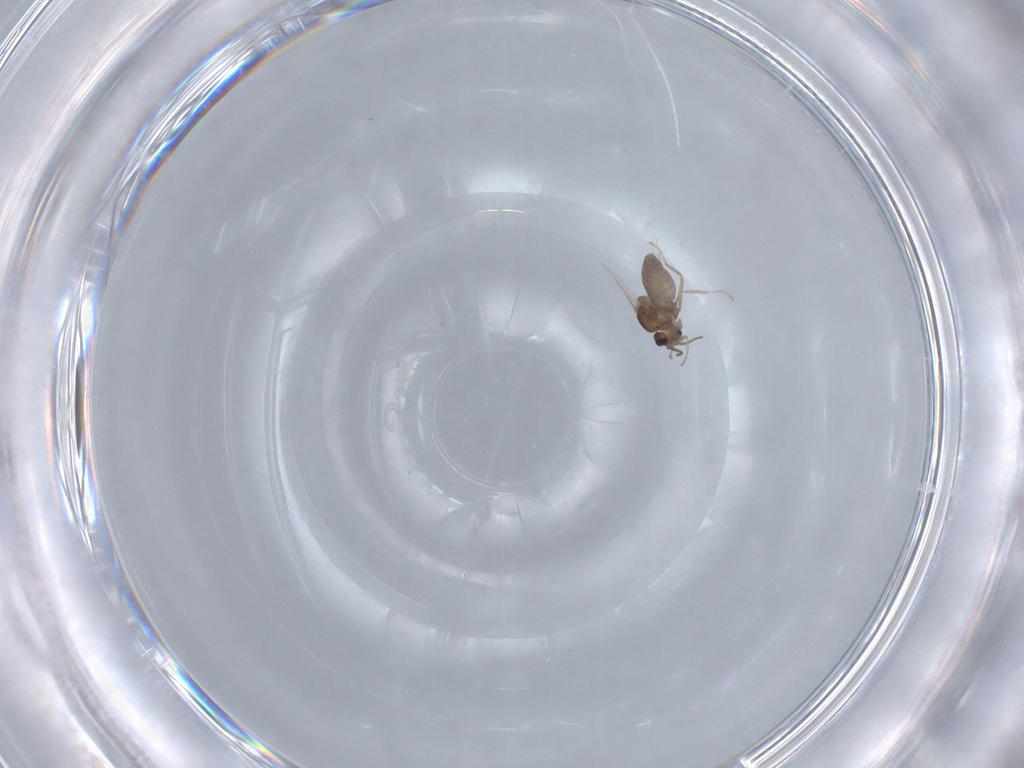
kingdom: Animalia
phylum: Arthropoda
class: Insecta
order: Diptera
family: Ceratopogonidae
